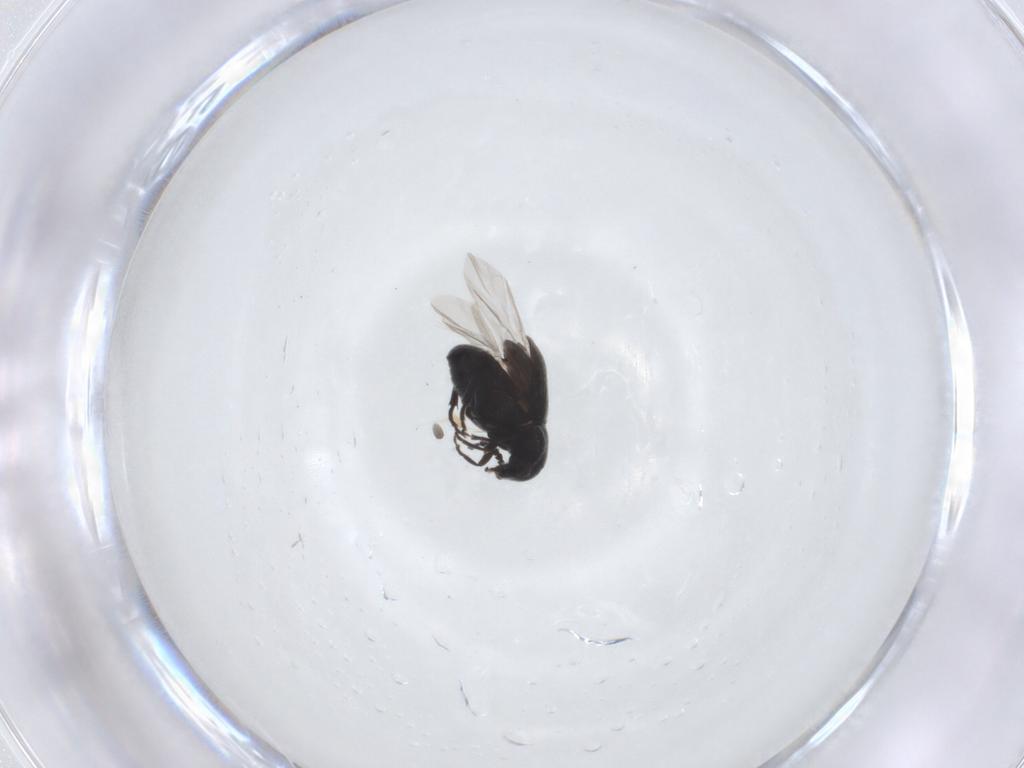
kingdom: Animalia
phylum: Arthropoda
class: Insecta
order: Coleoptera
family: Chrysomelidae
